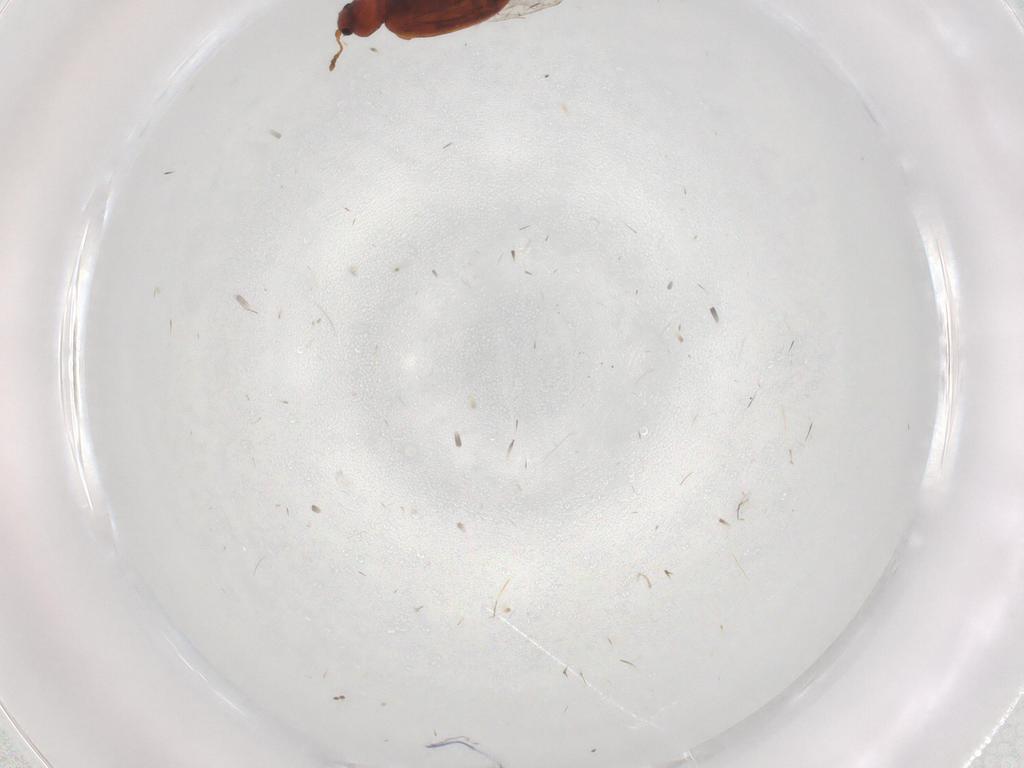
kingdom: Animalia
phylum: Arthropoda
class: Insecta
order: Coleoptera
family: Latridiidae
